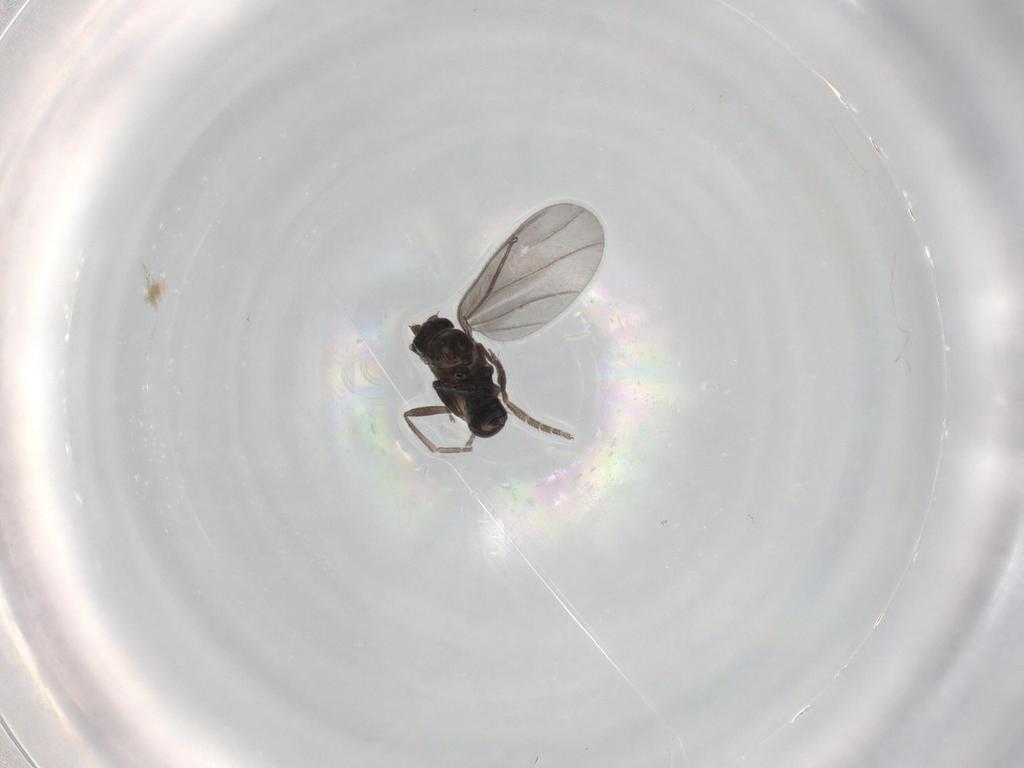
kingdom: Animalia
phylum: Arthropoda
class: Insecta
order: Diptera
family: Phoridae
